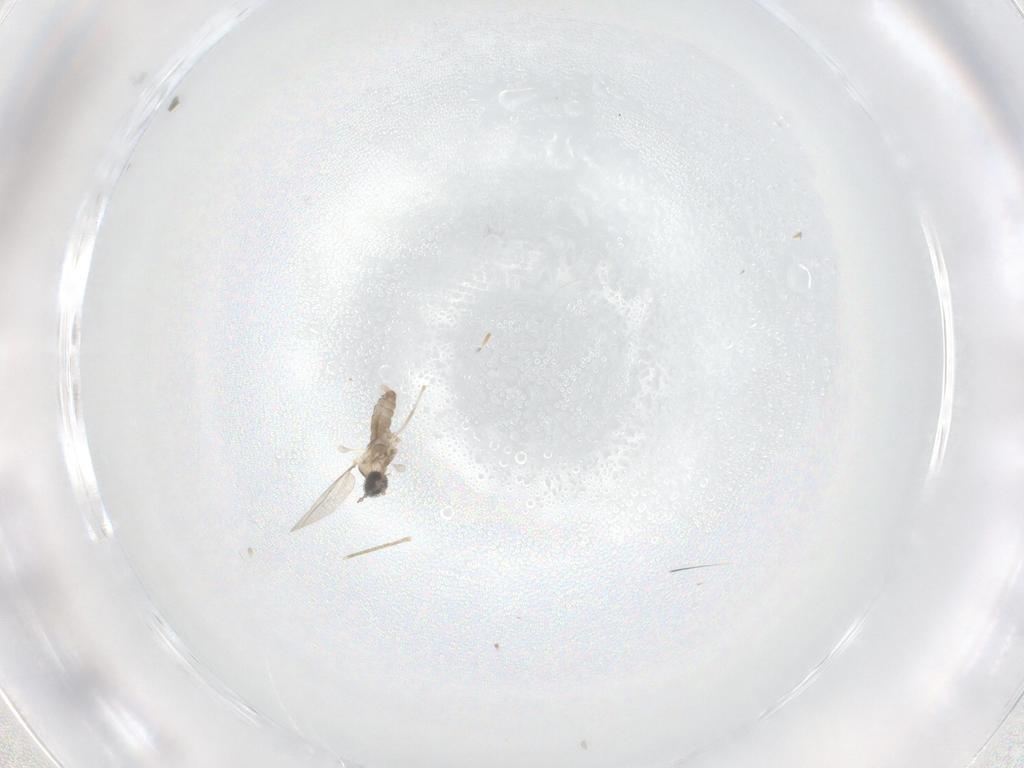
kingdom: Animalia
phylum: Arthropoda
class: Insecta
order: Diptera
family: Cecidomyiidae
